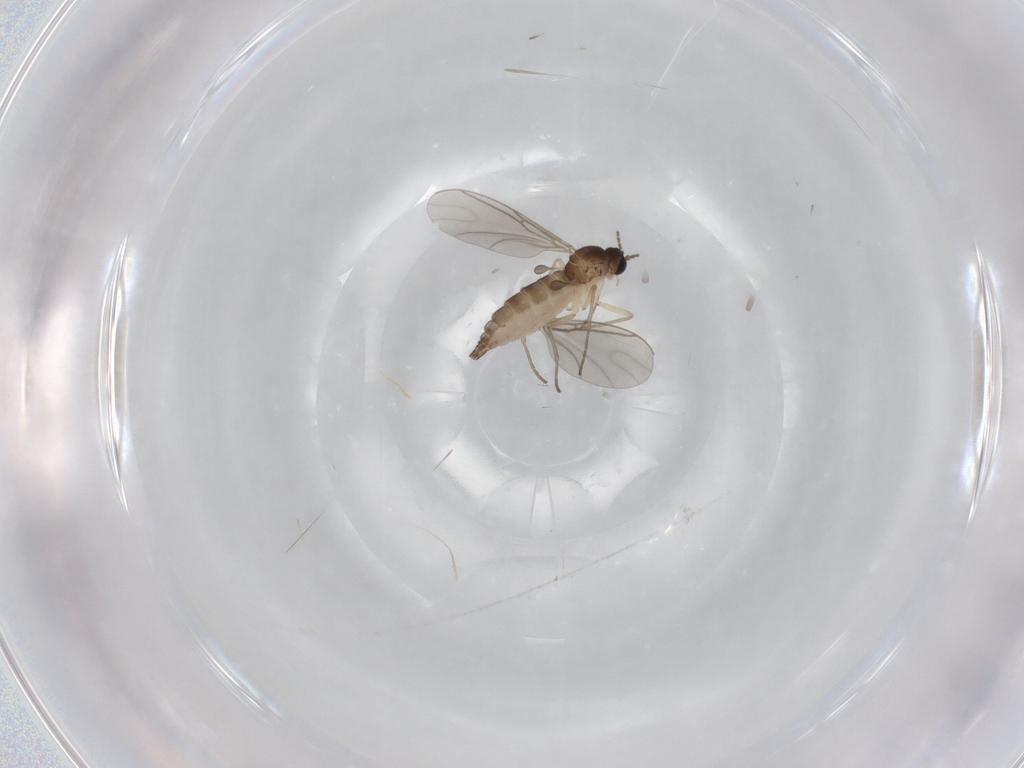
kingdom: Animalia
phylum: Arthropoda
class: Insecta
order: Diptera
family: Sciaridae
